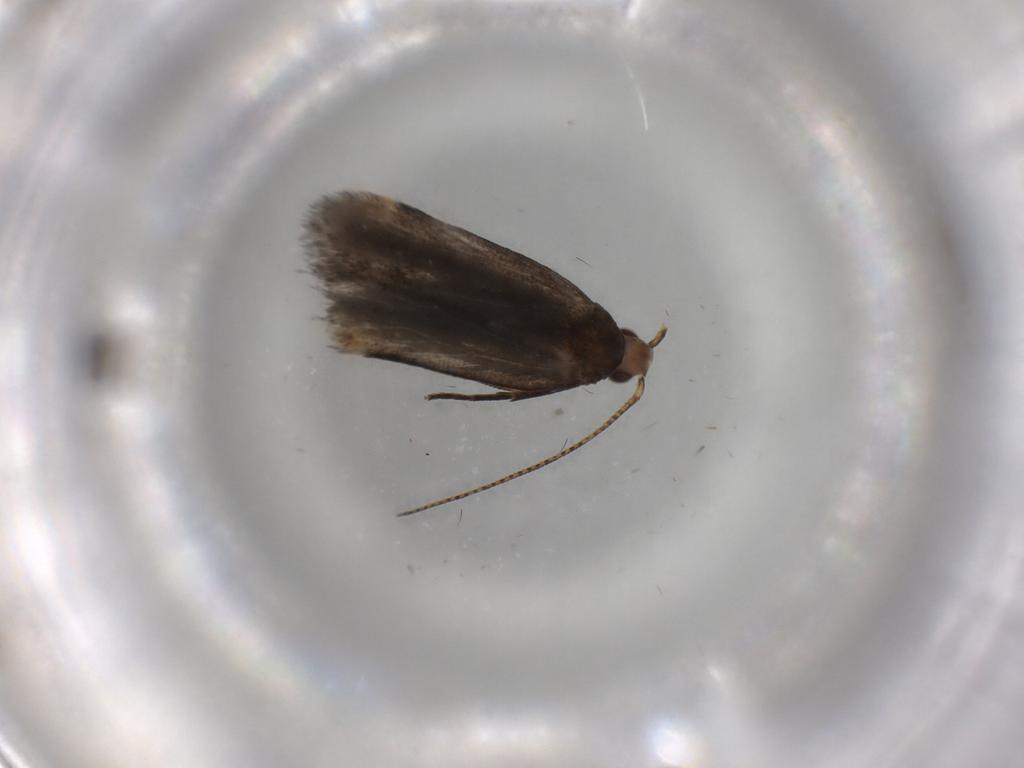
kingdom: Animalia
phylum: Arthropoda
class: Insecta
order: Lepidoptera
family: Gelechiidae
